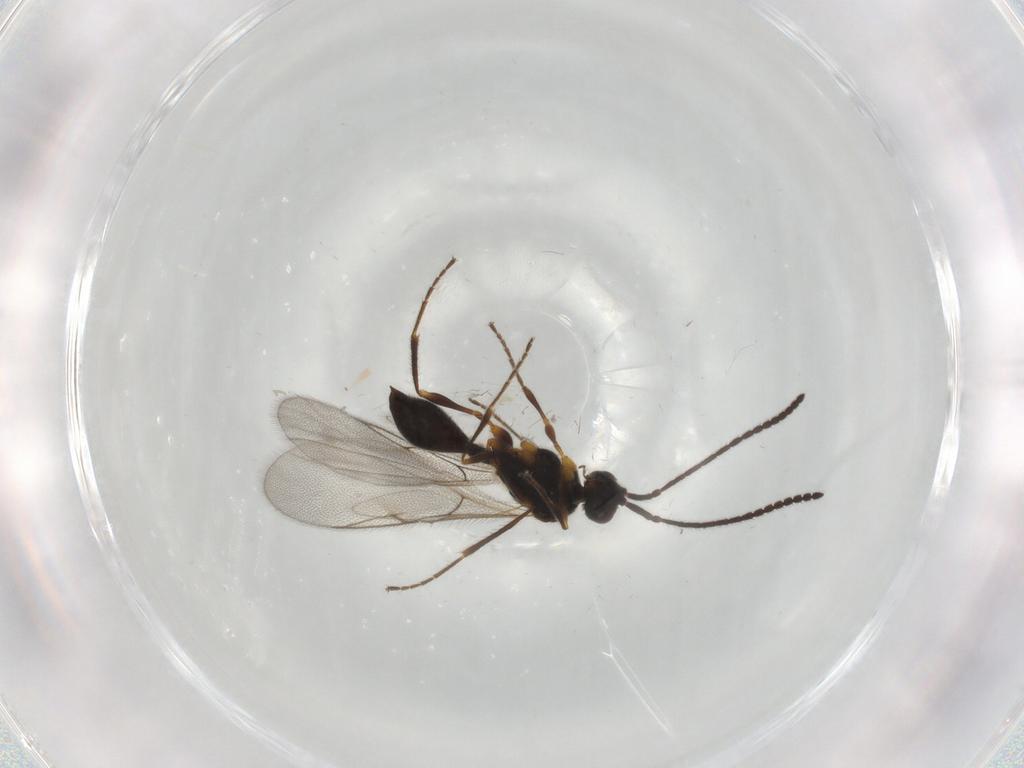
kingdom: Animalia
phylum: Arthropoda
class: Insecta
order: Hymenoptera
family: Diapriidae
